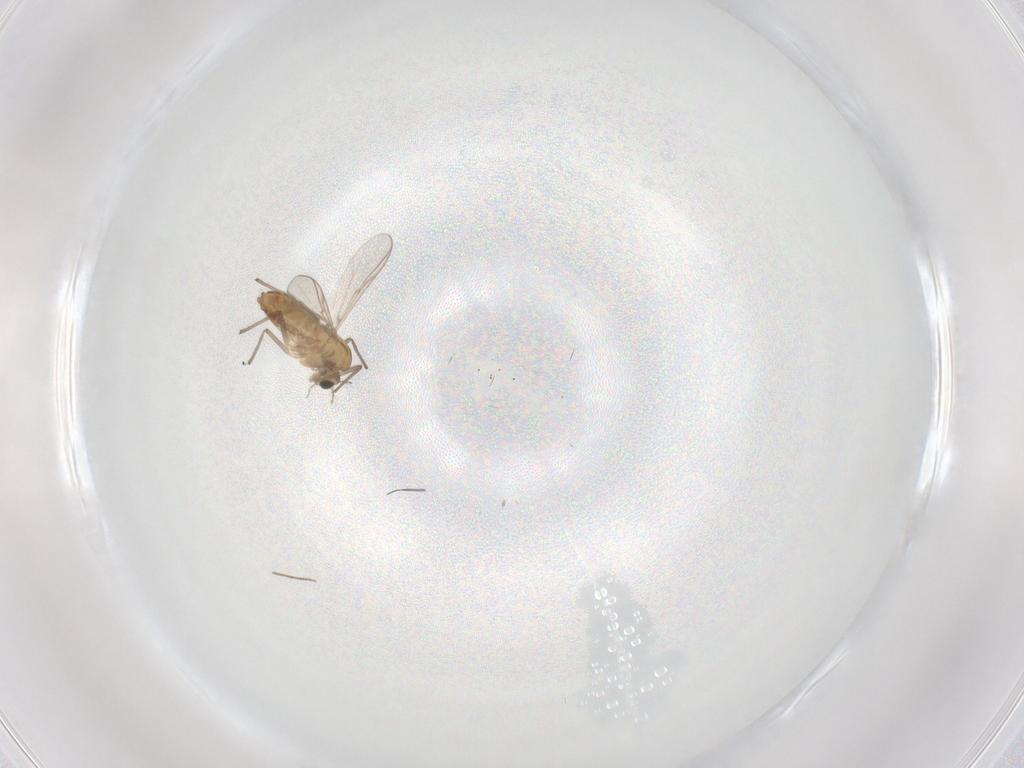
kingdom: Animalia
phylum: Arthropoda
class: Insecta
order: Diptera
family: Chironomidae
